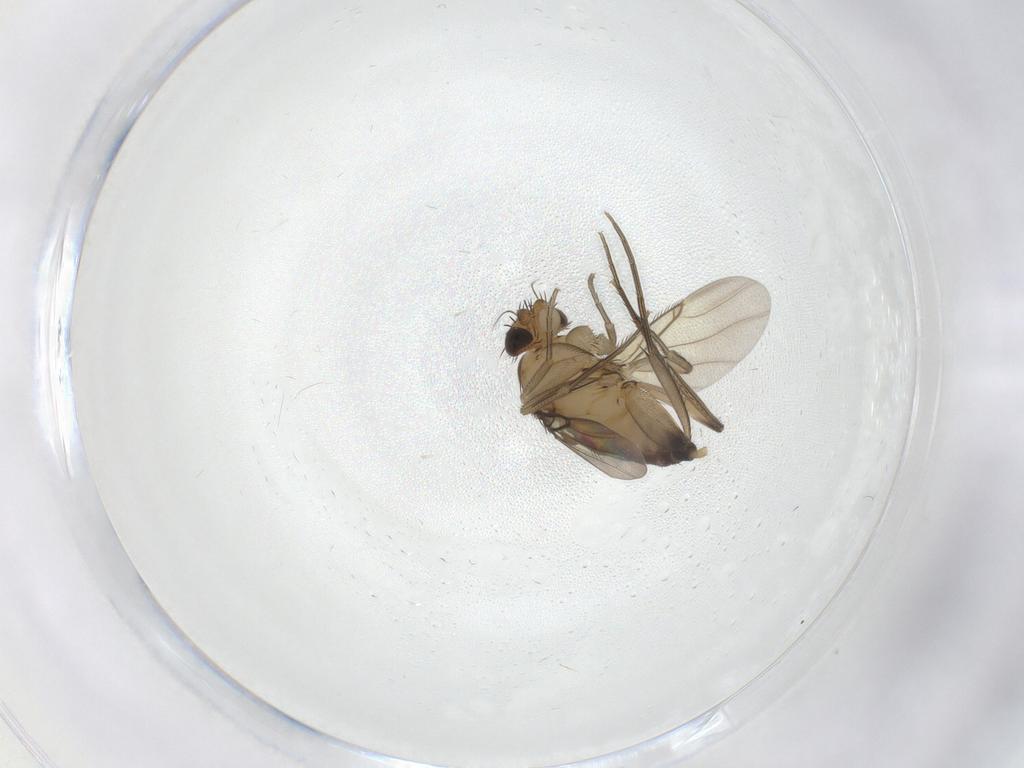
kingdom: Animalia
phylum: Arthropoda
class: Insecta
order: Diptera
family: Phoridae
